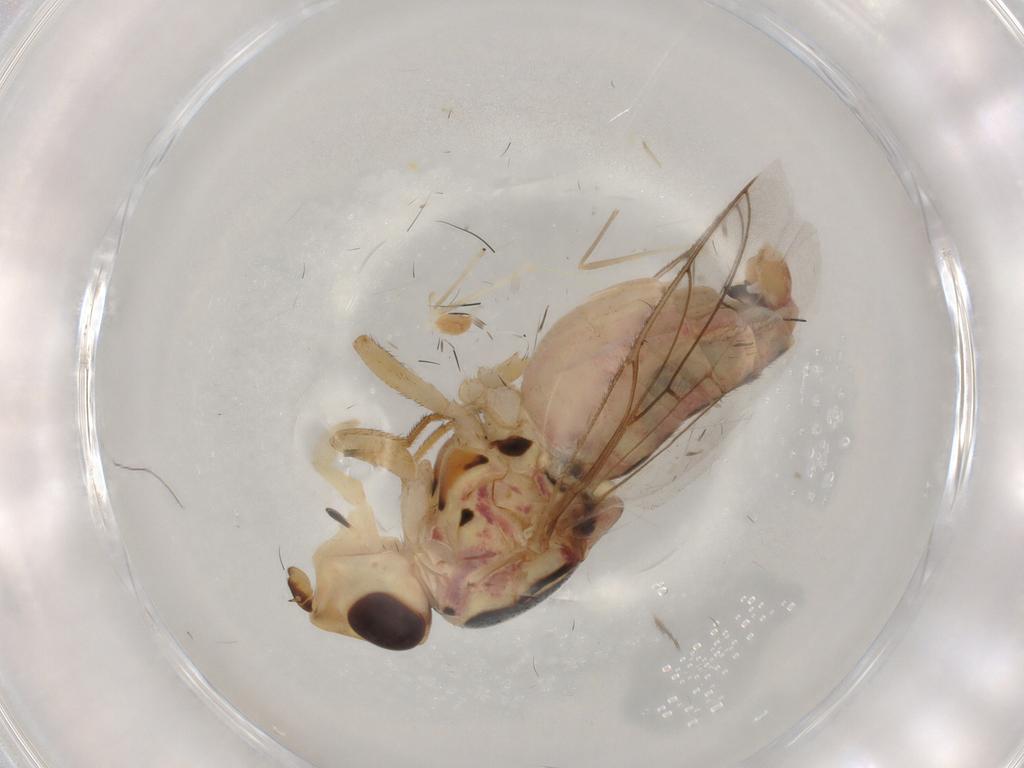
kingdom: Animalia
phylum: Arthropoda
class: Insecta
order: Diptera
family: Chloropidae
